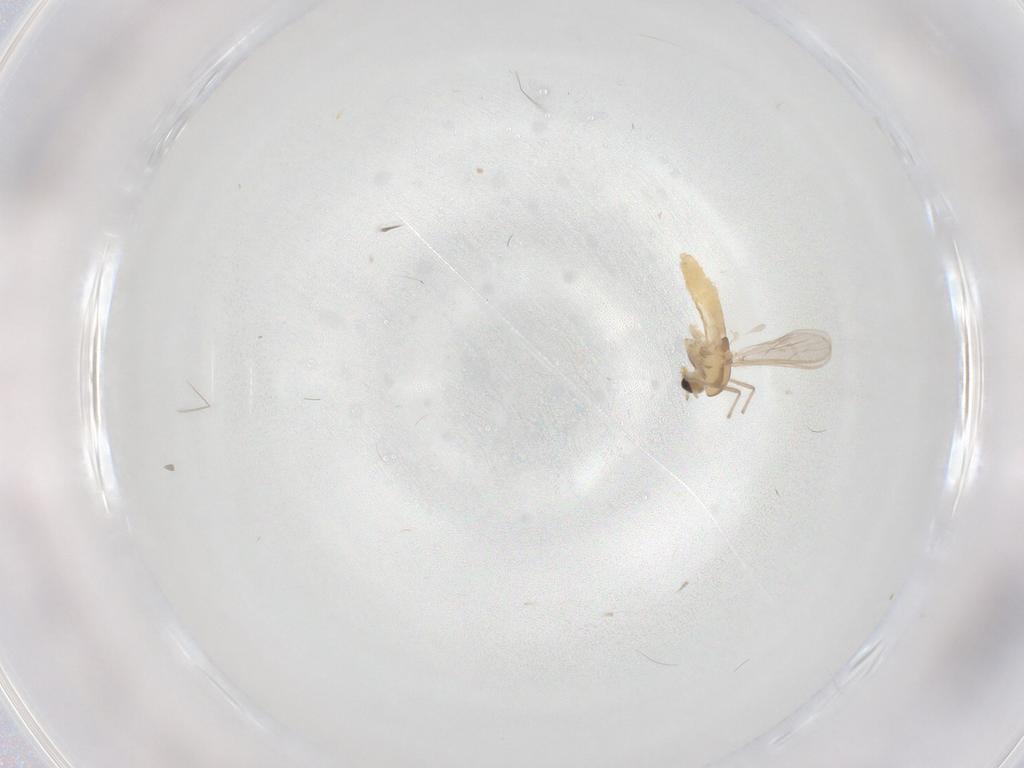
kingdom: Animalia
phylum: Arthropoda
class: Insecta
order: Diptera
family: Chironomidae
